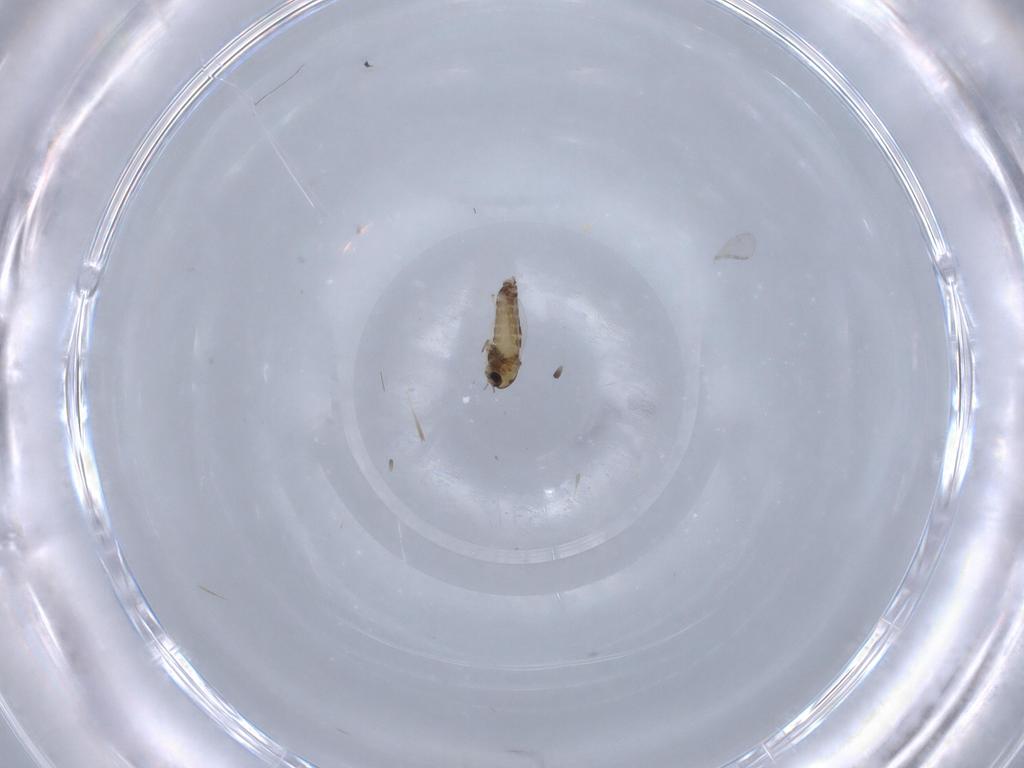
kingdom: Animalia
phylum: Arthropoda
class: Insecta
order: Diptera
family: Chironomidae
